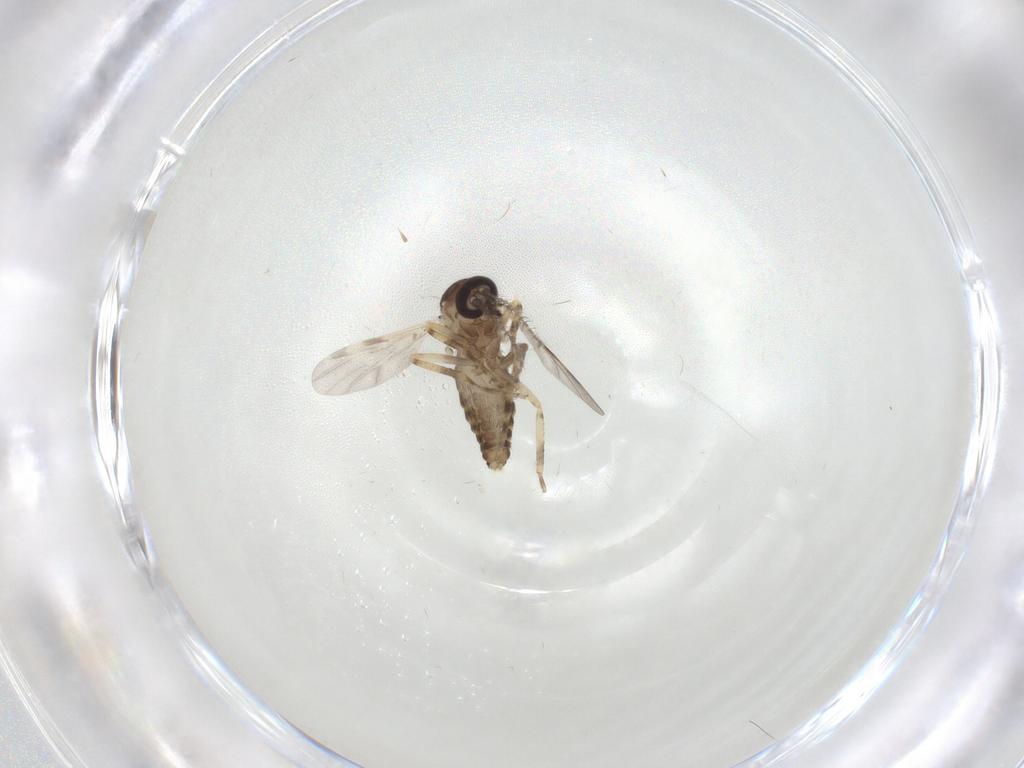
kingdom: Animalia
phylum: Arthropoda
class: Insecta
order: Diptera
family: Ceratopogonidae
